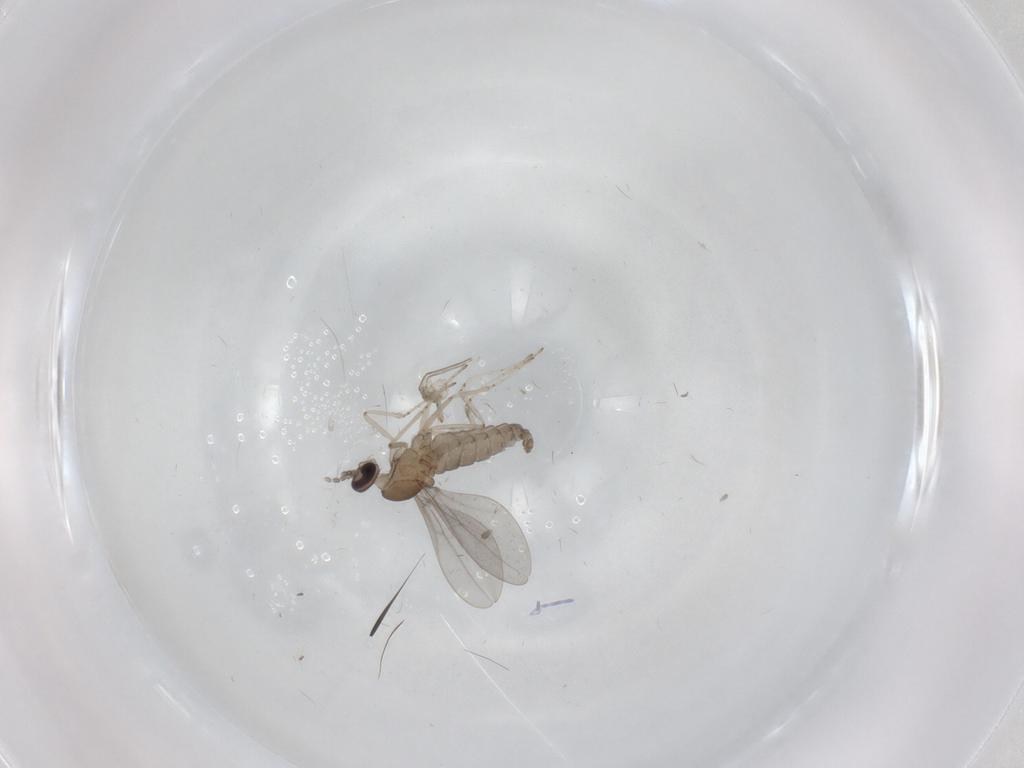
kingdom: Animalia
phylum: Arthropoda
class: Insecta
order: Diptera
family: Cecidomyiidae
